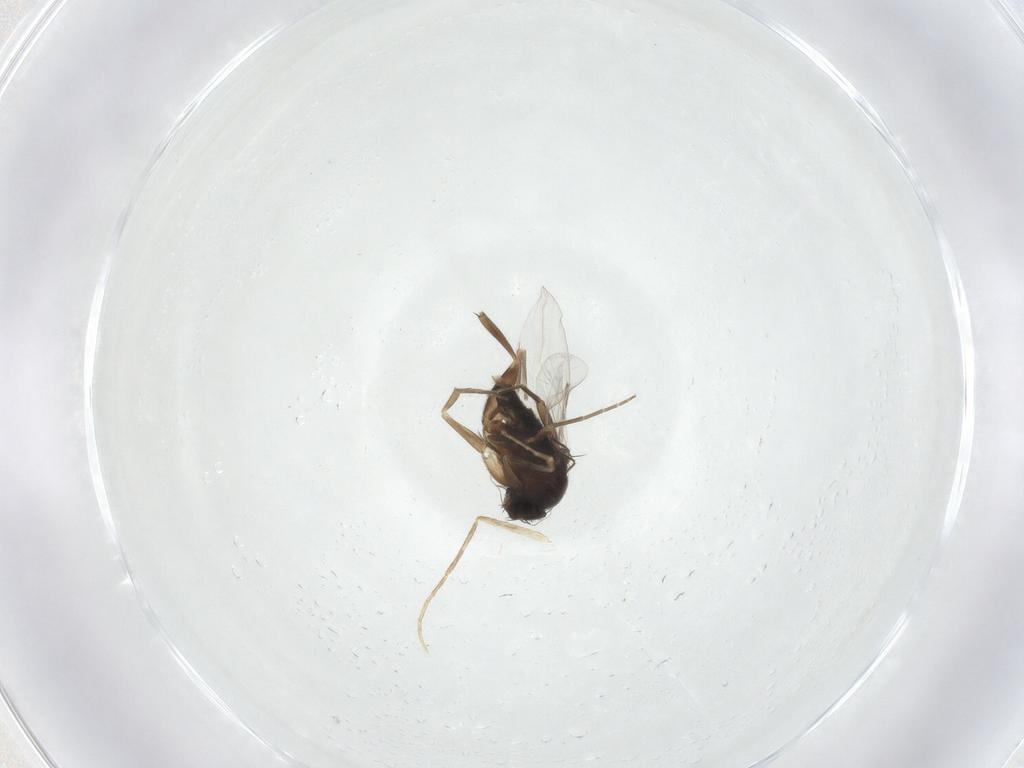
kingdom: Animalia
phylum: Arthropoda
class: Insecta
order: Diptera
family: Phoridae
